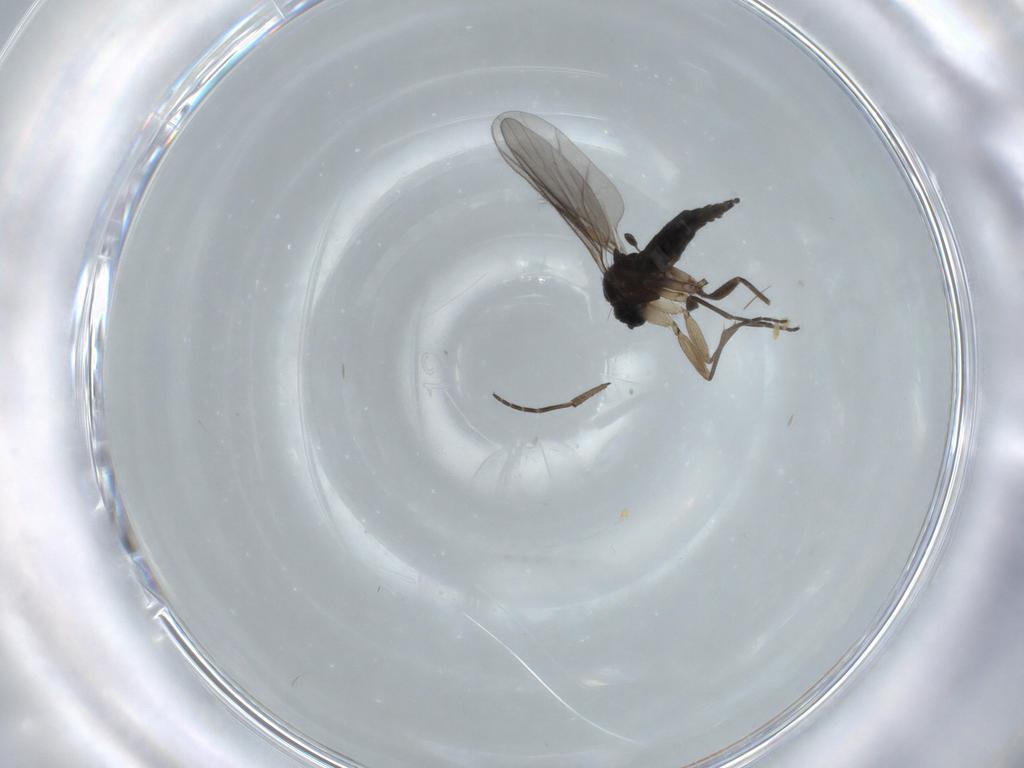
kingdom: Animalia
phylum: Arthropoda
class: Insecta
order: Diptera
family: Sciaridae
